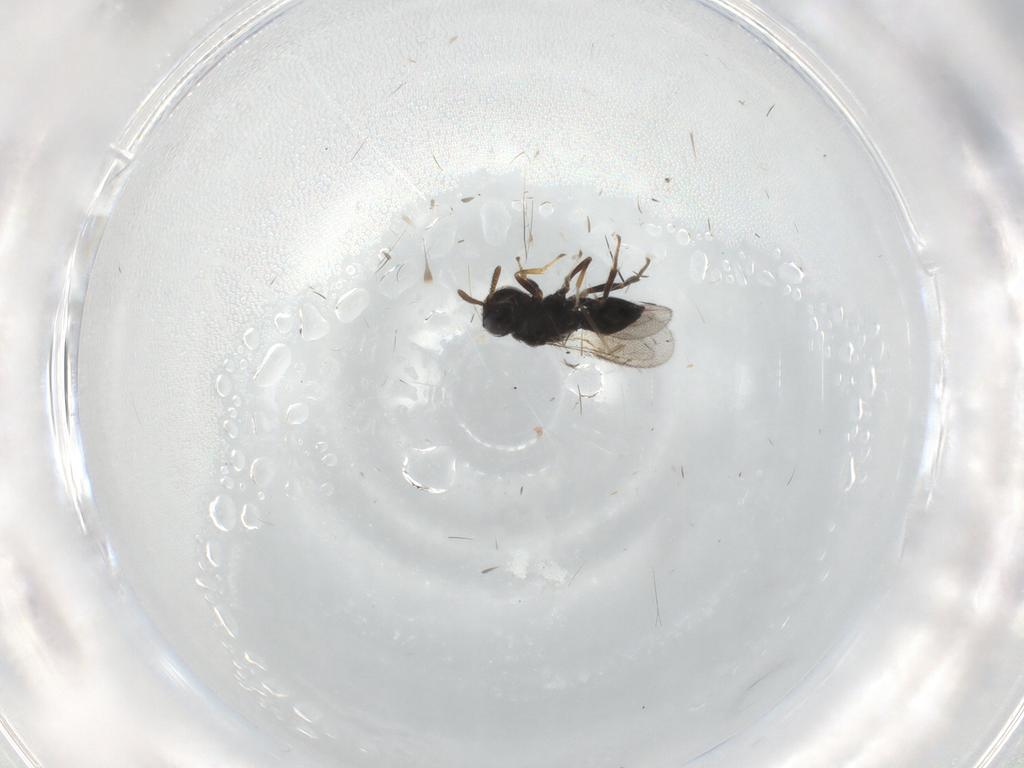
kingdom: Animalia
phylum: Arthropoda
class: Insecta
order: Hymenoptera
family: Pteromalidae
